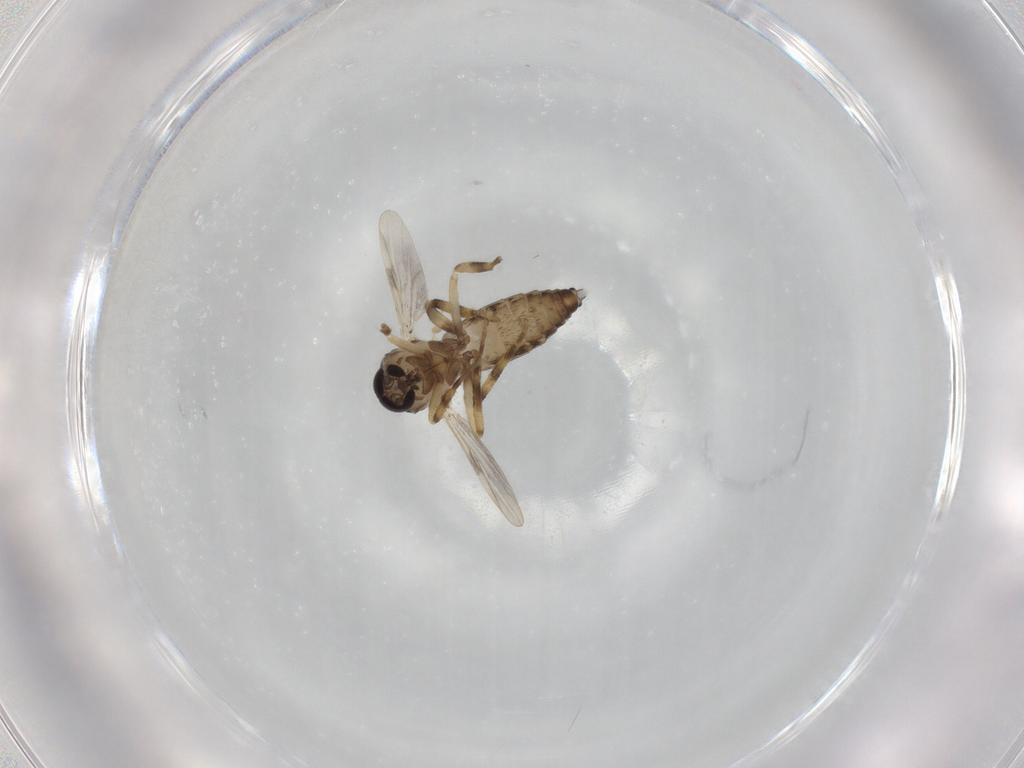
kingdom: Animalia
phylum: Arthropoda
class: Insecta
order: Diptera
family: Psychodidae
